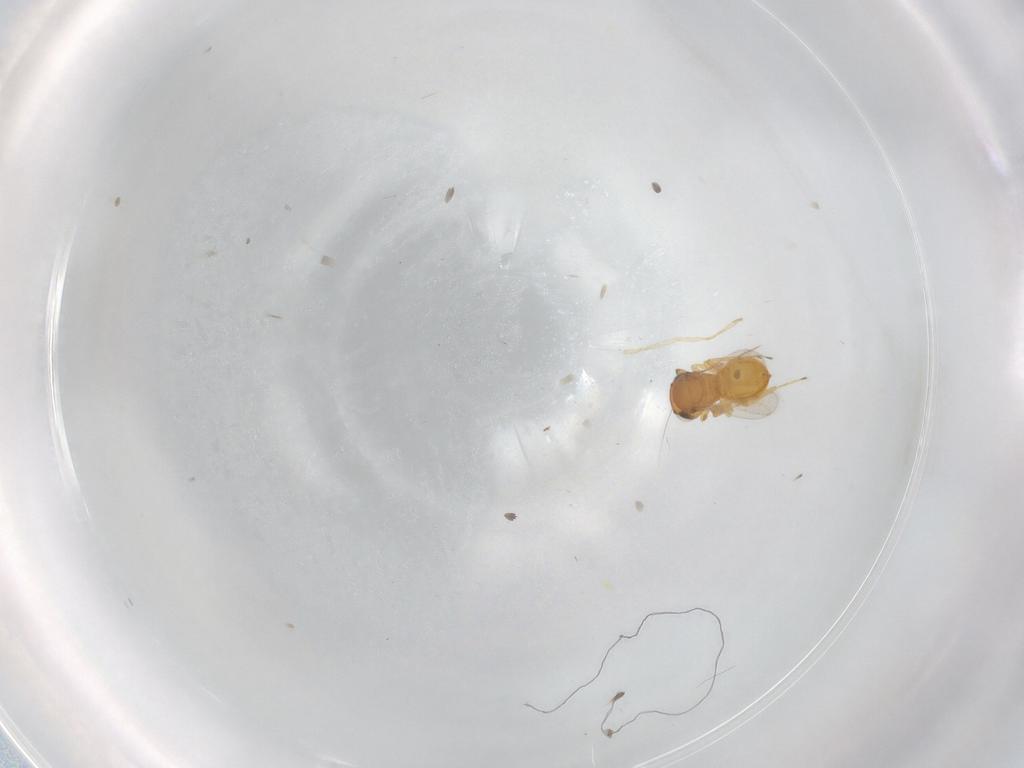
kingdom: Animalia
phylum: Arthropoda
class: Insecta
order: Hymenoptera
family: Scelionidae
